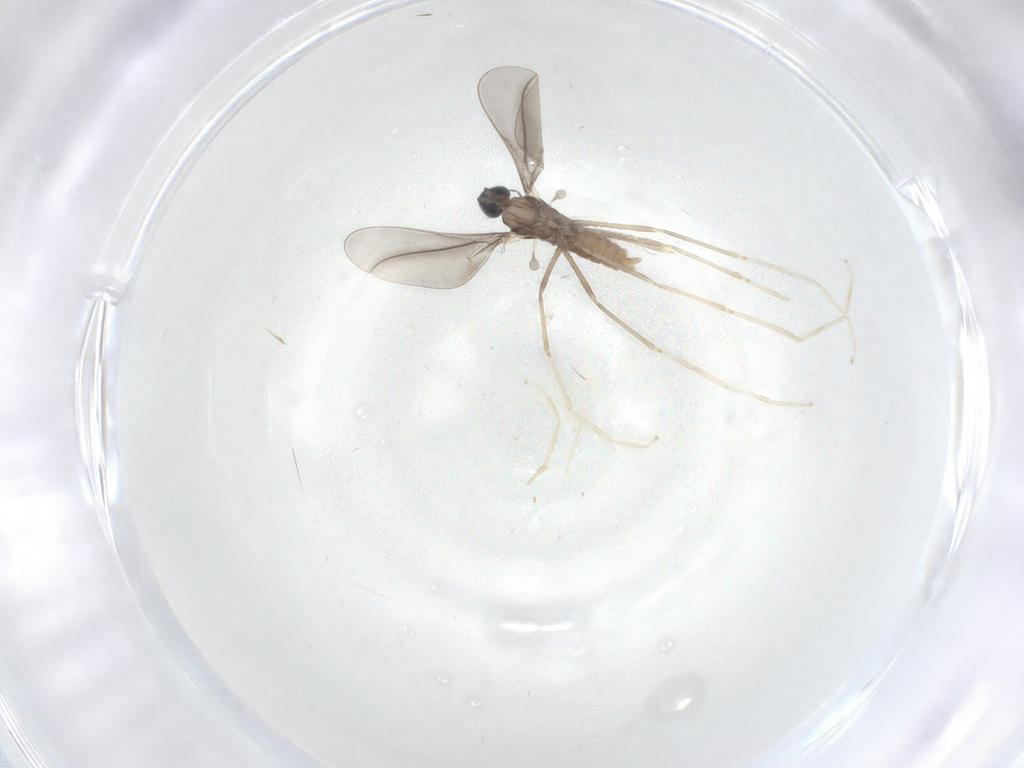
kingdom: Animalia
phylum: Arthropoda
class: Insecta
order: Diptera
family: Cecidomyiidae
